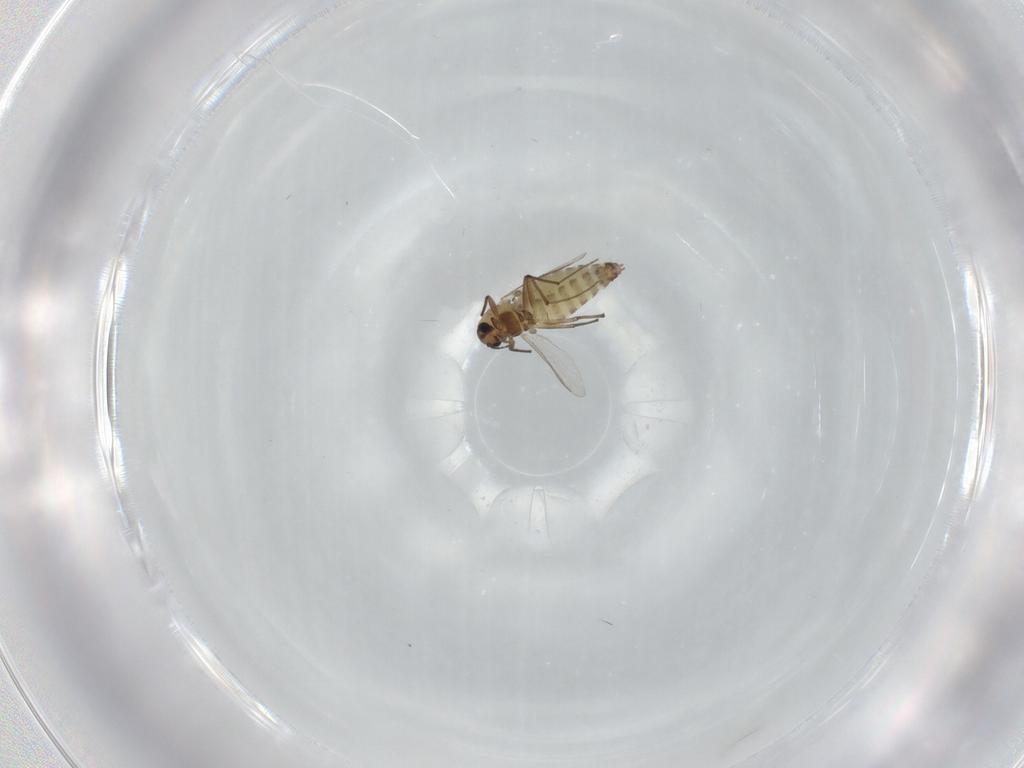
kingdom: Animalia
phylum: Arthropoda
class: Insecta
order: Diptera
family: Chironomidae
